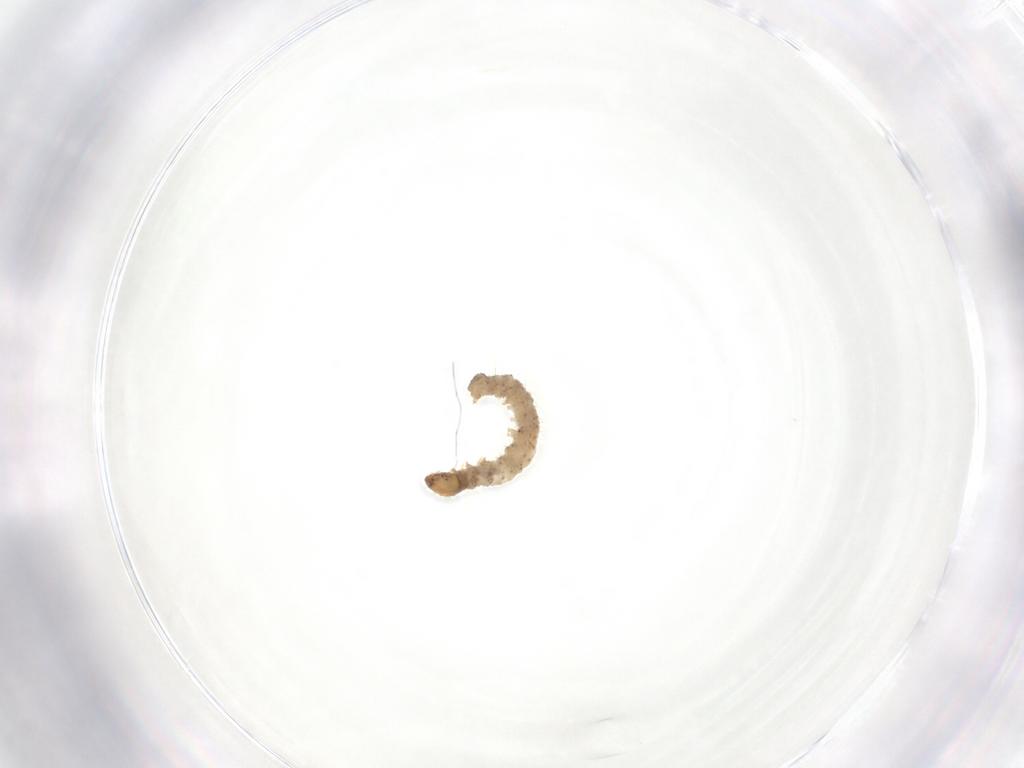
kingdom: Animalia
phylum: Arthropoda
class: Insecta
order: Lepidoptera
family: Dryadaulidae
